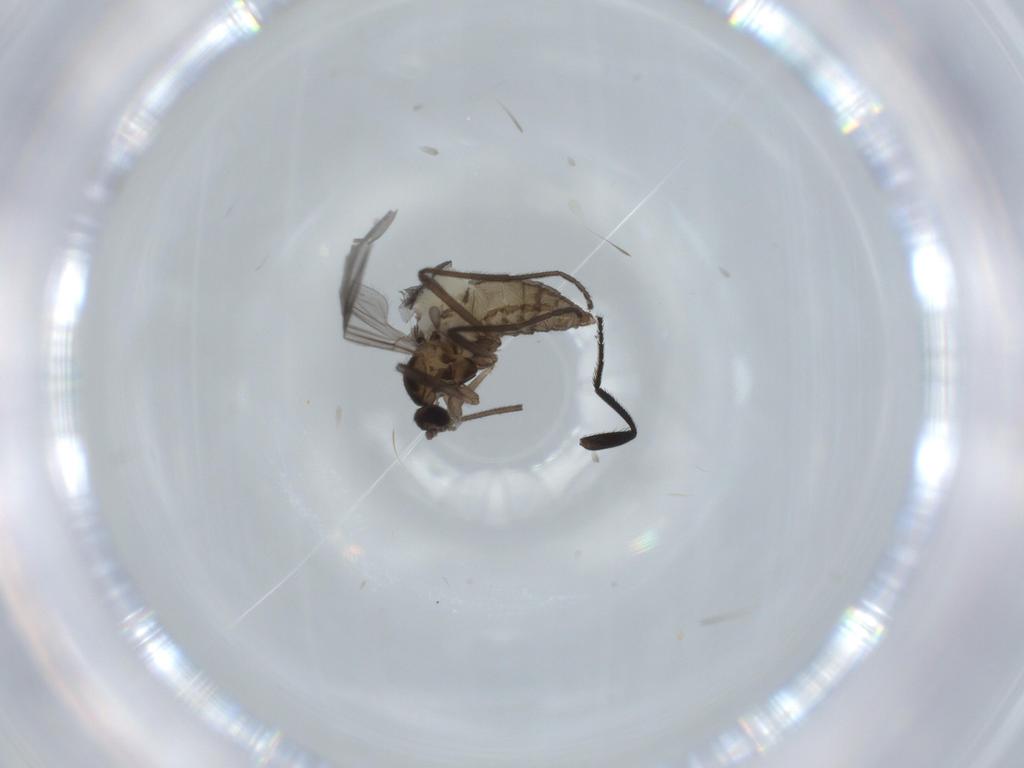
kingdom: Animalia
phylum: Arthropoda
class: Insecta
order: Diptera
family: Cecidomyiidae
